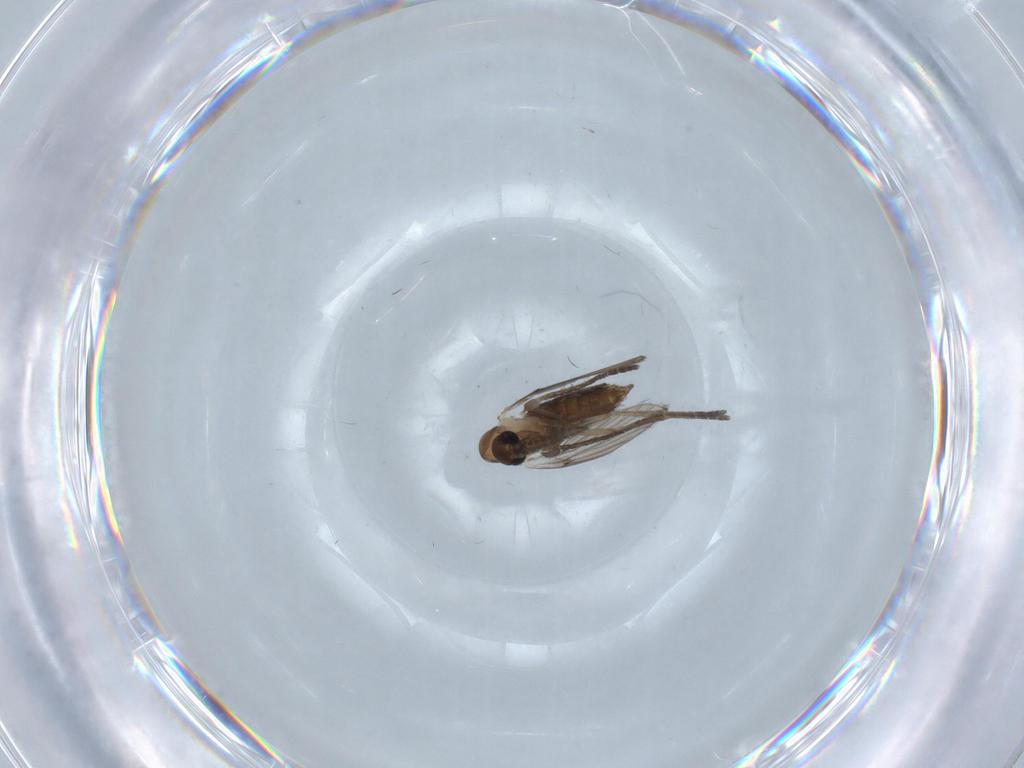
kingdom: Animalia
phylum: Arthropoda
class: Insecta
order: Diptera
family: Psychodidae
